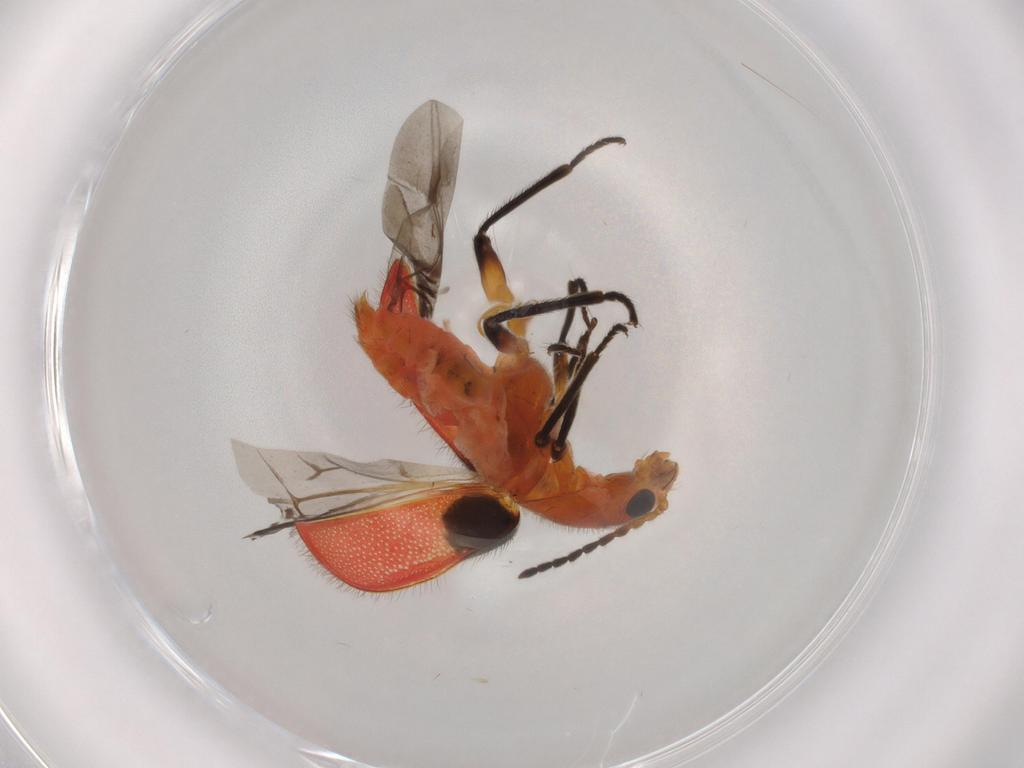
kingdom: Animalia
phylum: Arthropoda
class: Insecta
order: Coleoptera
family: Melyridae
